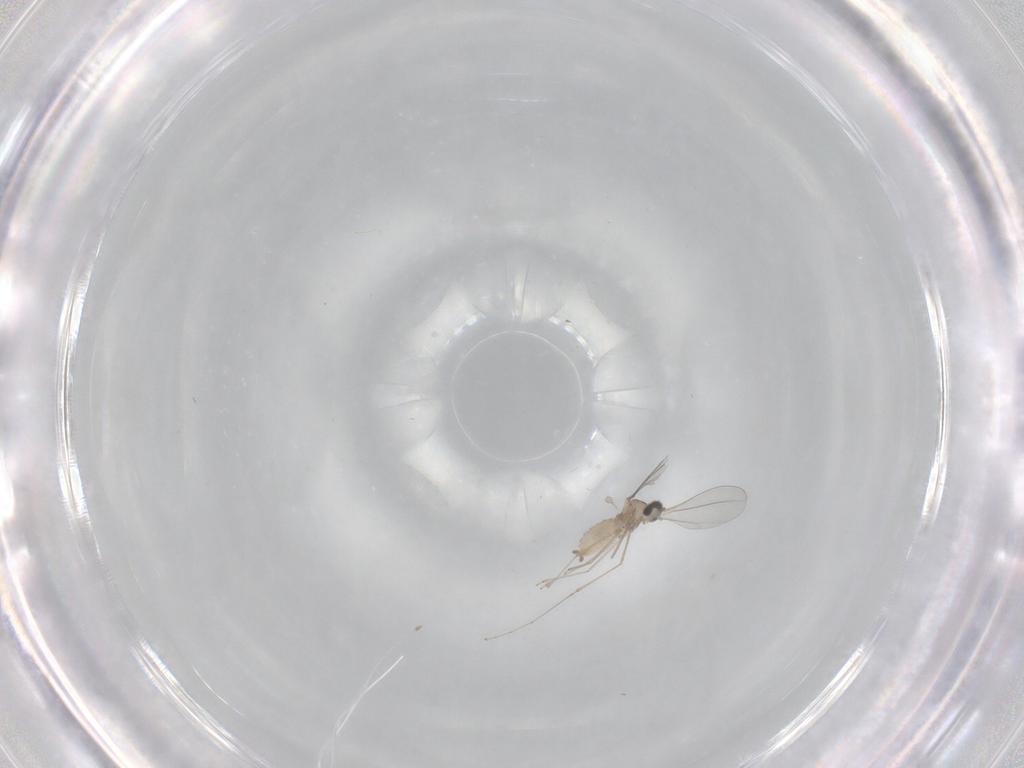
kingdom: Animalia
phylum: Arthropoda
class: Insecta
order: Diptera
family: Cecidomyiidae
